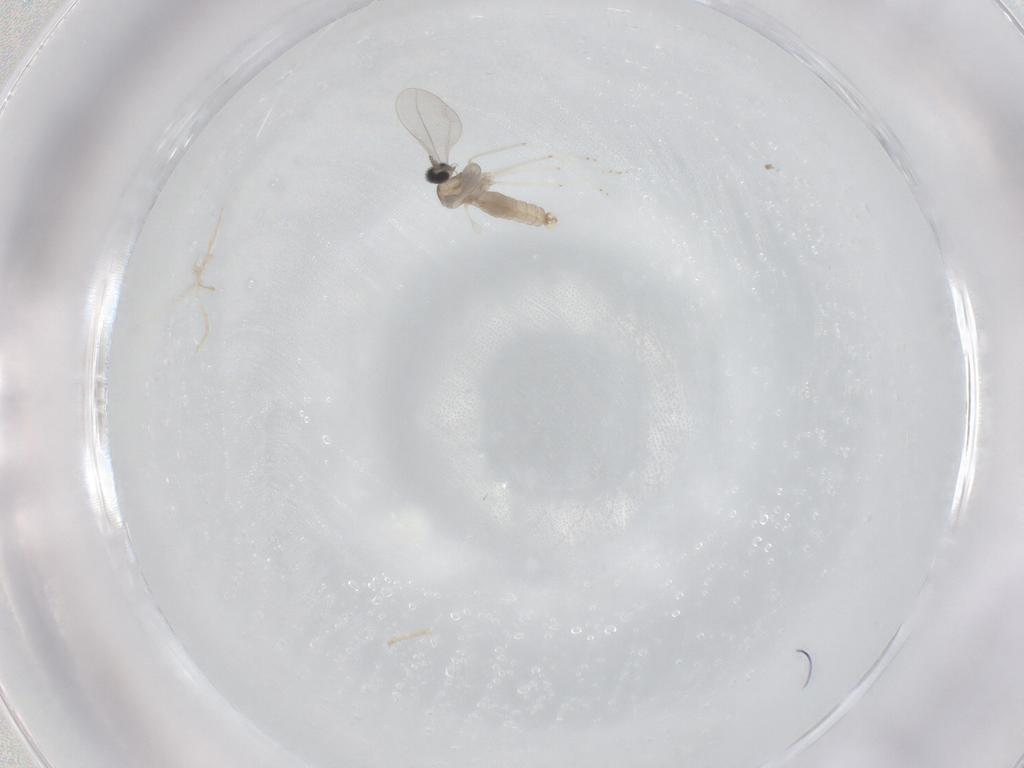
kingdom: Animalia
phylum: Arthropoda
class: Insecta
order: Diptera
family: Cecidomyiidae
